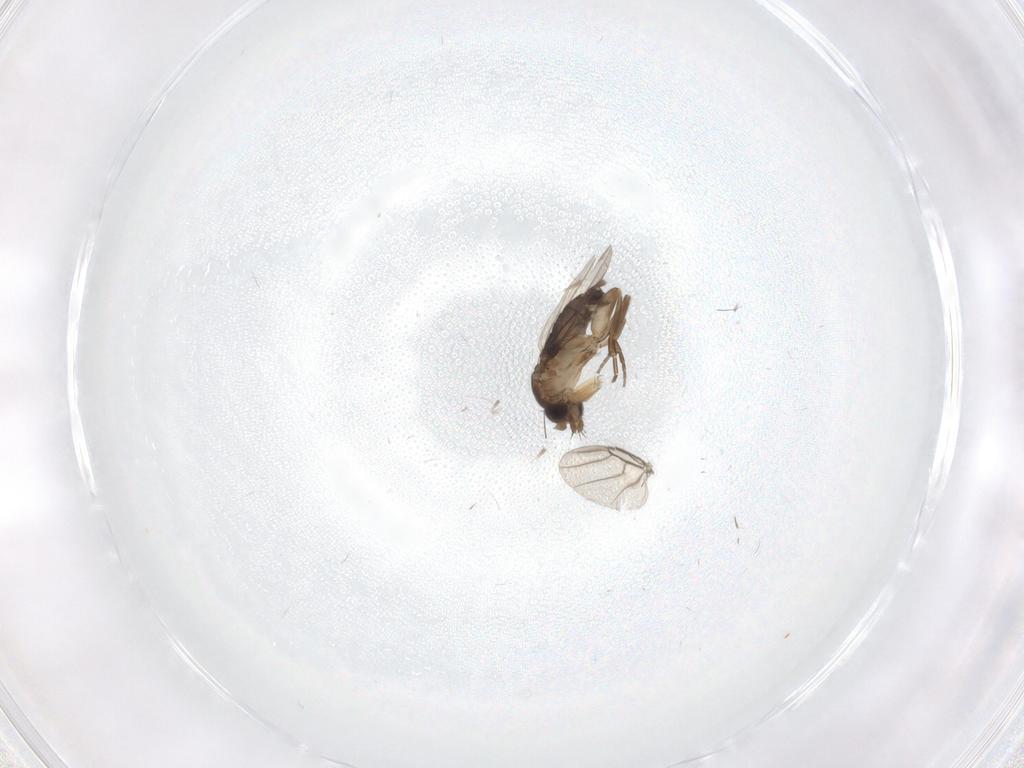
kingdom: Animalia
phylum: Arthropoda
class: Insecta
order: Diptera
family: Phoridae
